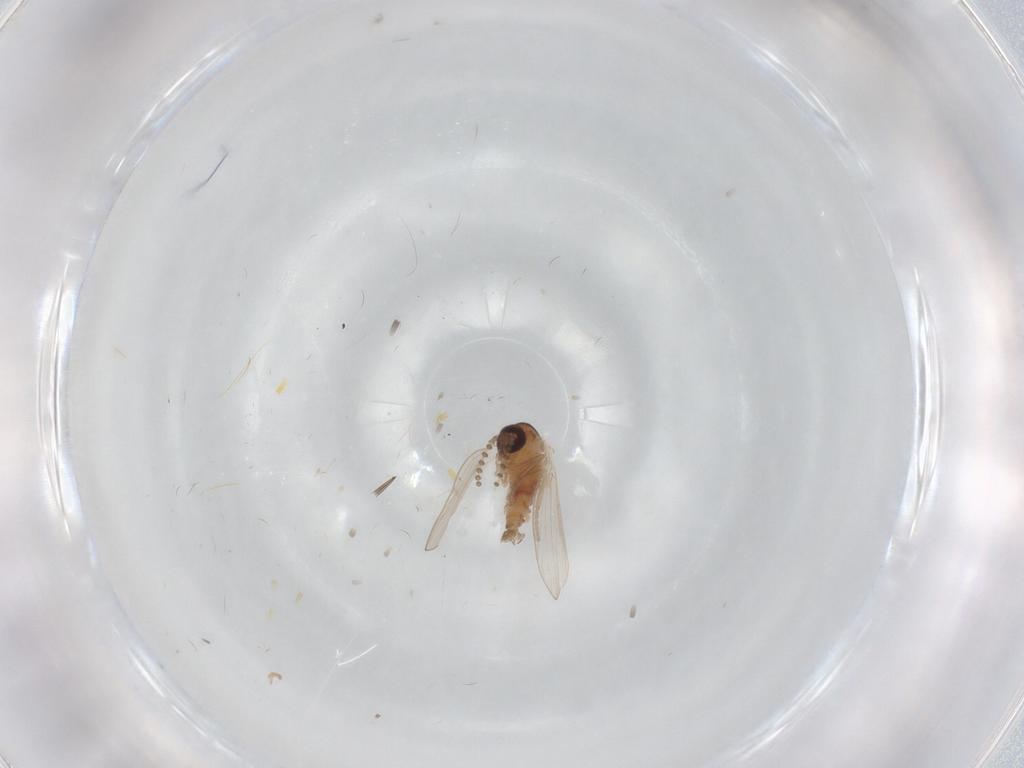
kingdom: Animalia
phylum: Arthropoda
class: Insecta
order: Diptera
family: Psychodidae
